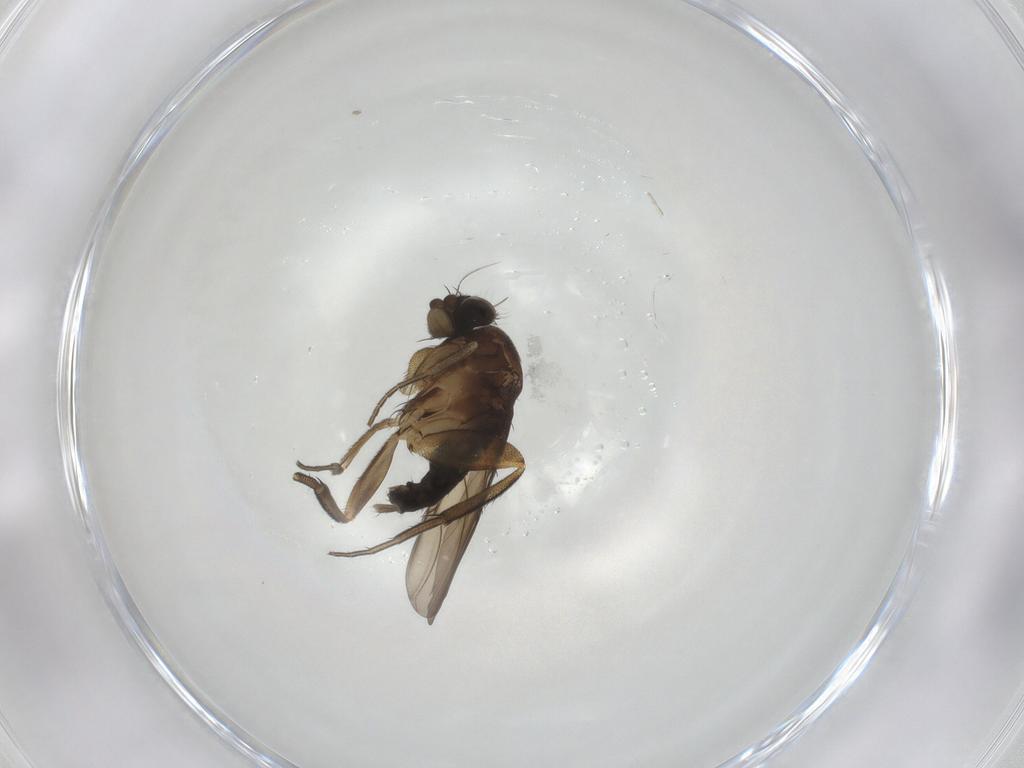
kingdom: Animalia
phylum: Arthropoda
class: Insecta
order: Diptera
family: Phoridae
